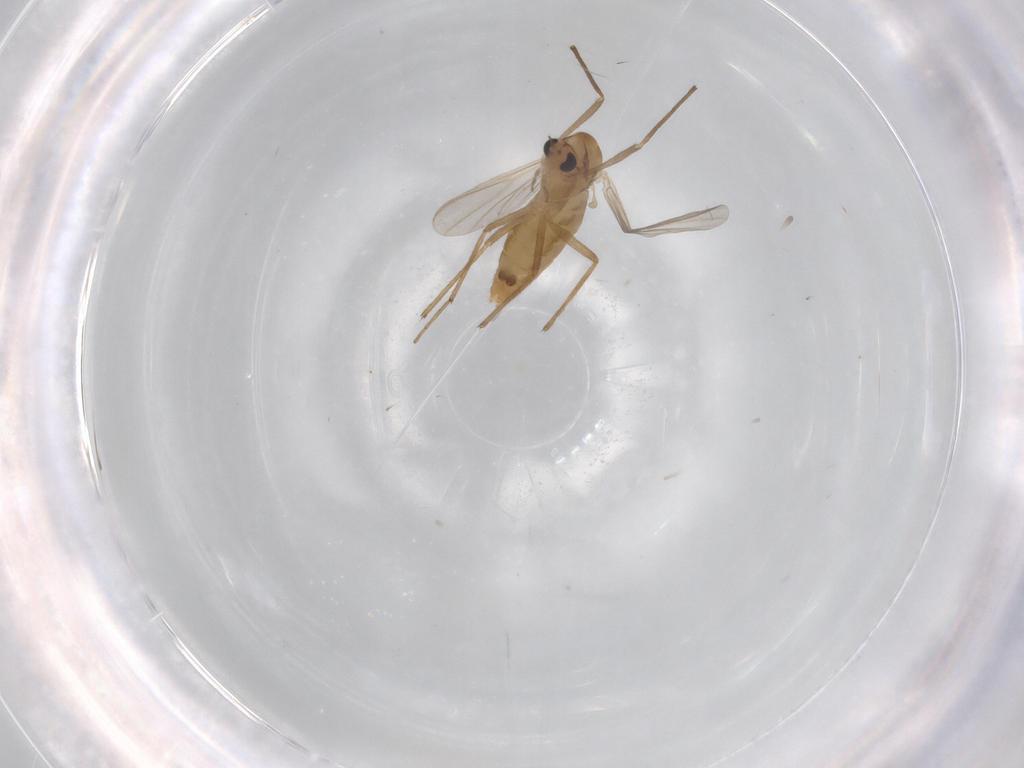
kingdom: Animalia
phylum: Arthropoda
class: Insecta
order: Diptera
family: Chironomidae
